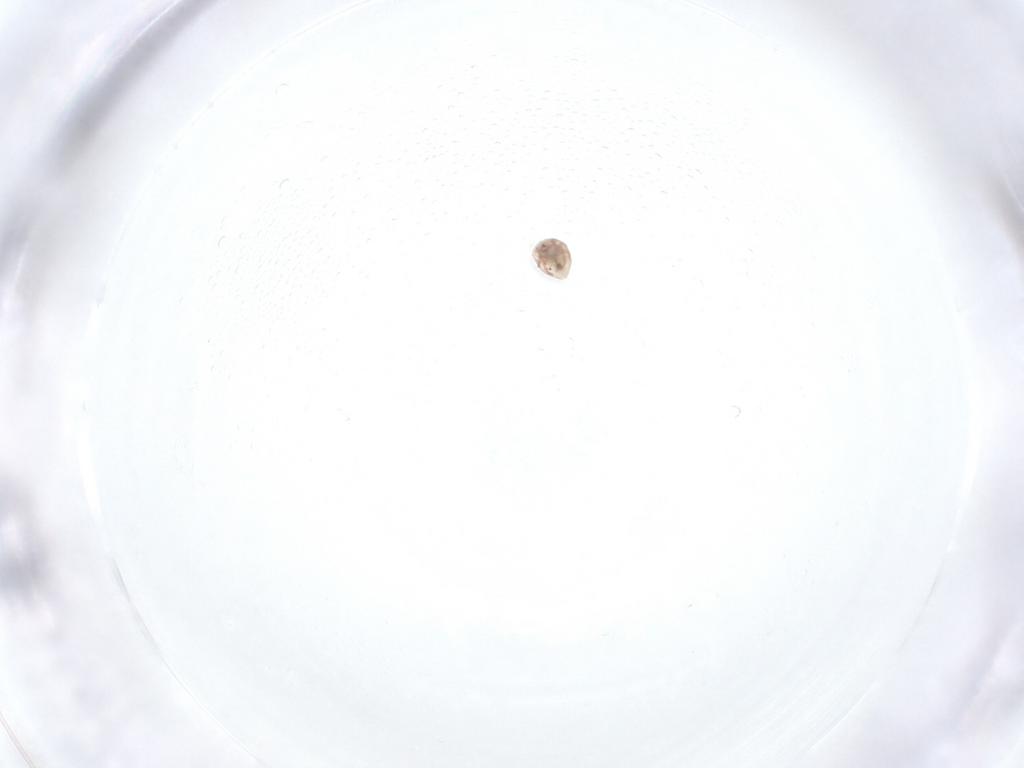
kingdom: Animalia
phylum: Arthropoda
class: Arachnida
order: Sarcoptiformes
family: Galumnidae
